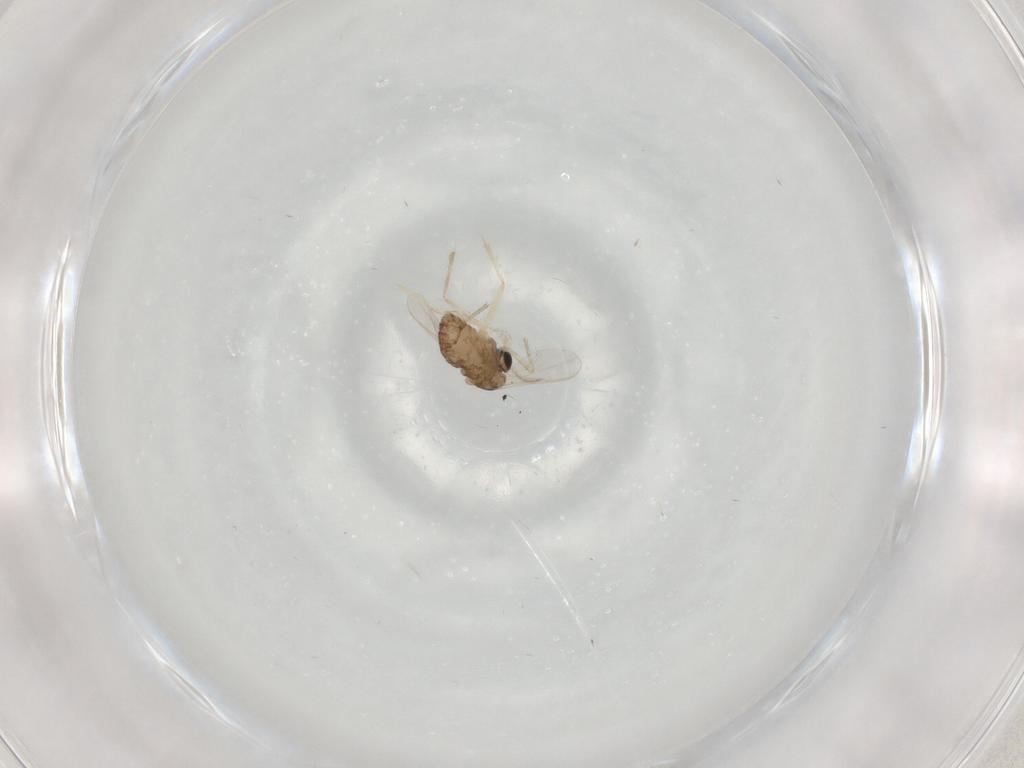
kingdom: Animalia
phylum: Arthropoda
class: Insecta
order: Diptera
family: Chironomidae
